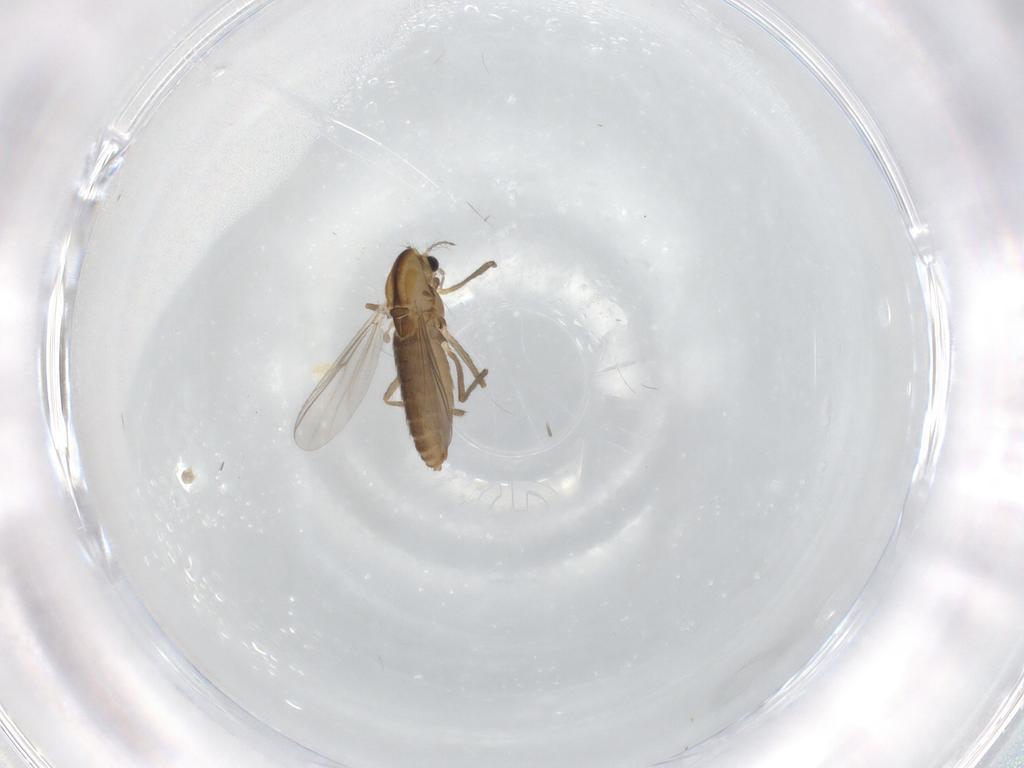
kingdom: Animalia
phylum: Arthropoda
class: Insecta
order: Diptera
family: Chironomidae
